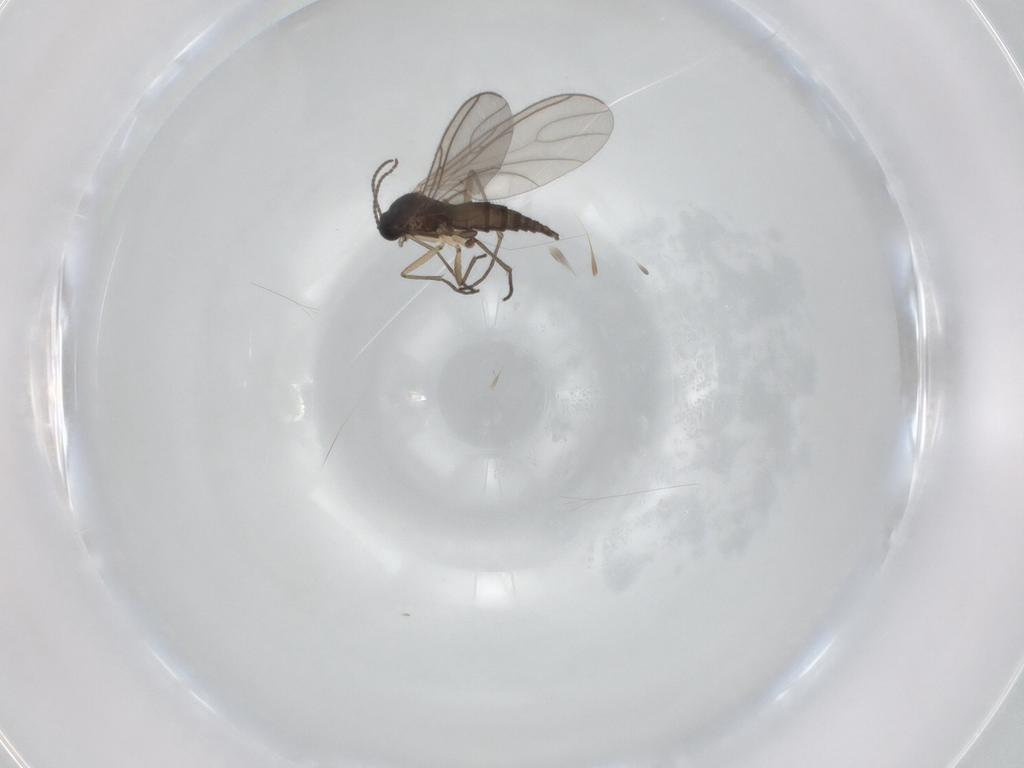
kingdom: Animalia
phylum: Arthropoda
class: Insecta
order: Diptera
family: Sciaridae
